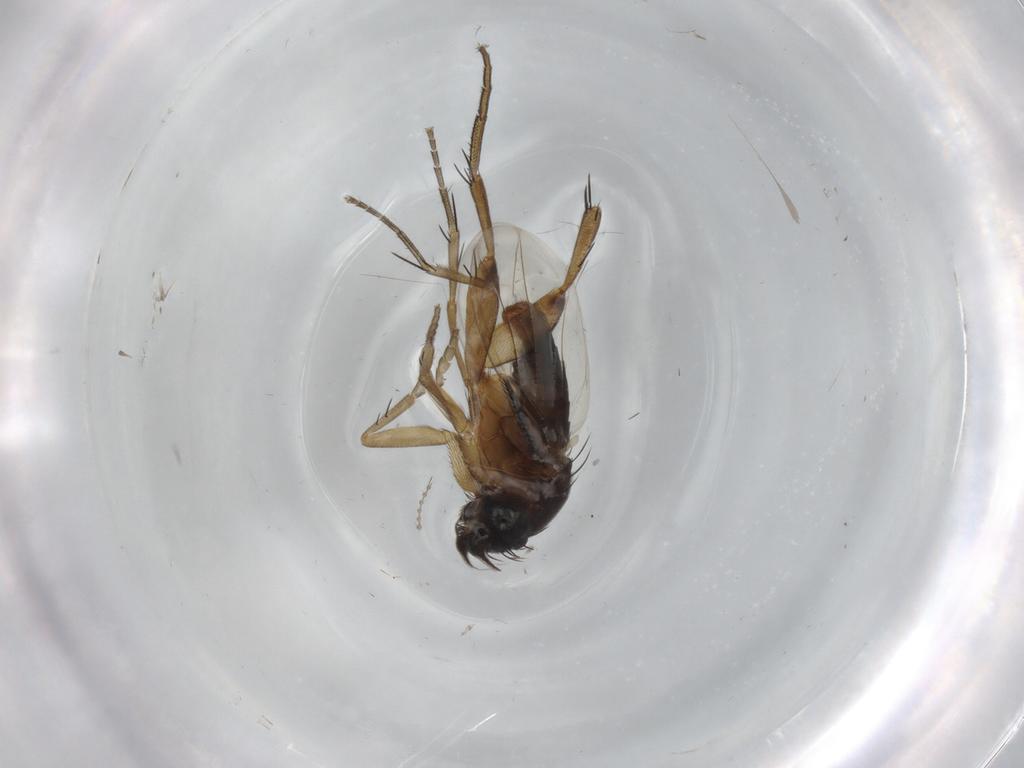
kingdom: Animalia
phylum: Arthropoda
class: Insecta
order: Diptera
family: Phoridae
